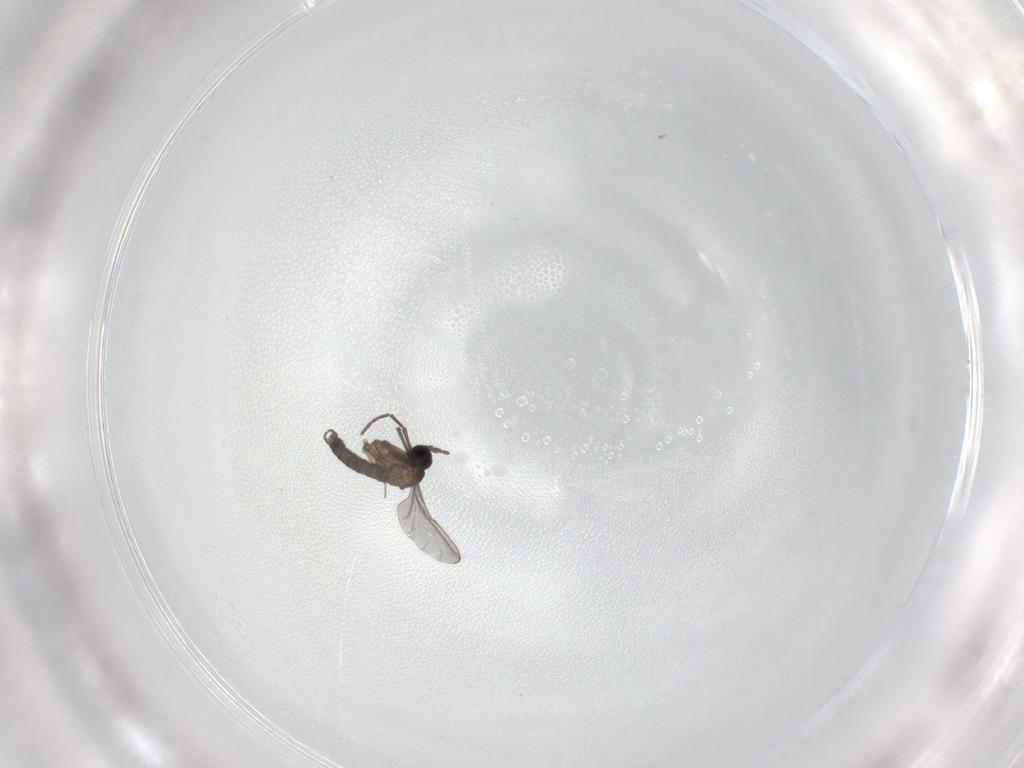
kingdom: Animalia
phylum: Arthropoda
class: Insecta
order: Diptera
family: Sciaridae
